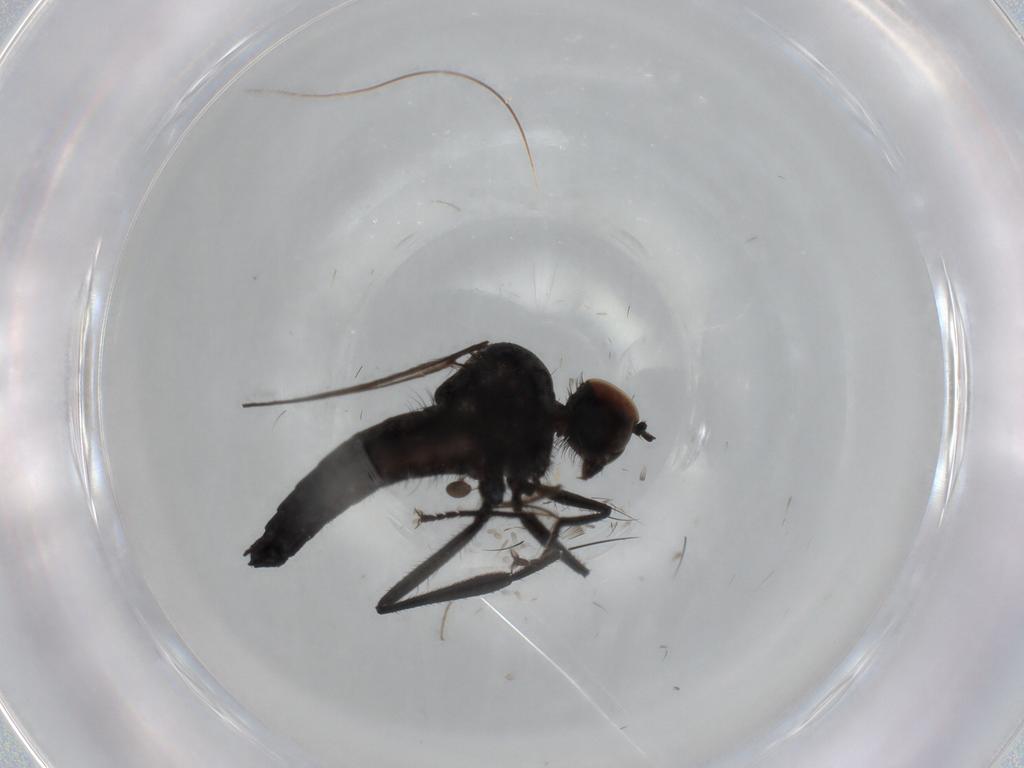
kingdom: Animalia
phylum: Arthropoda
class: Insecta
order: Diptera
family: Hybotidae
